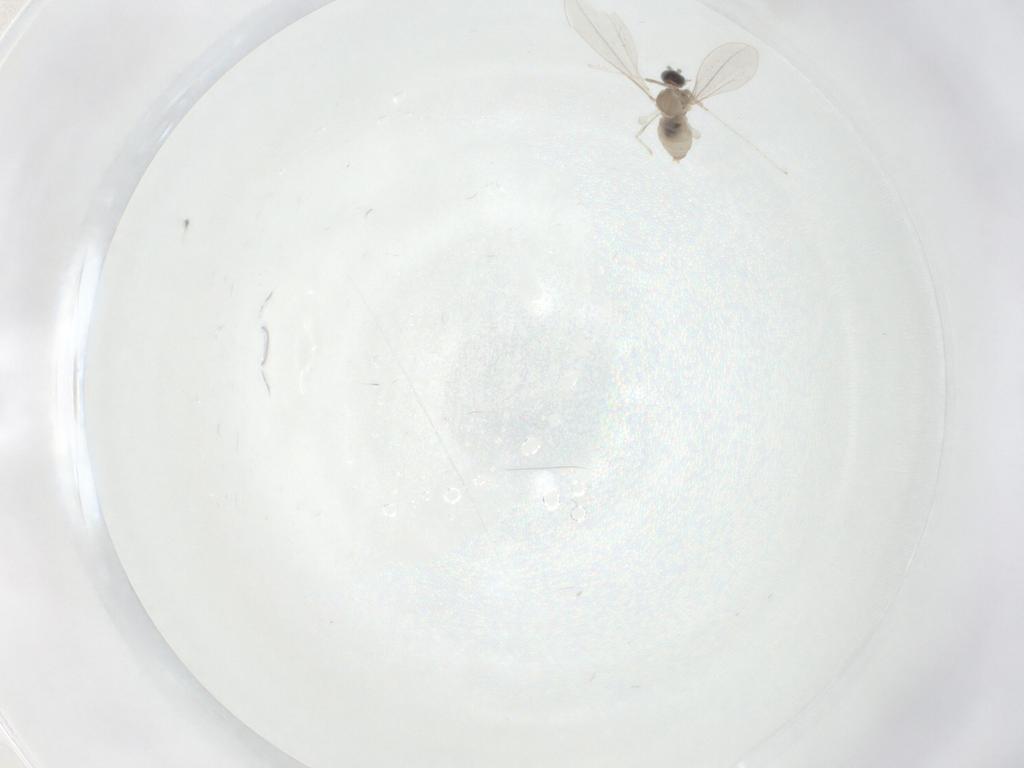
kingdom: Animalia
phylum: Arthropoda
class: Insecta
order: Diptera
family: Cecidomyiidae
